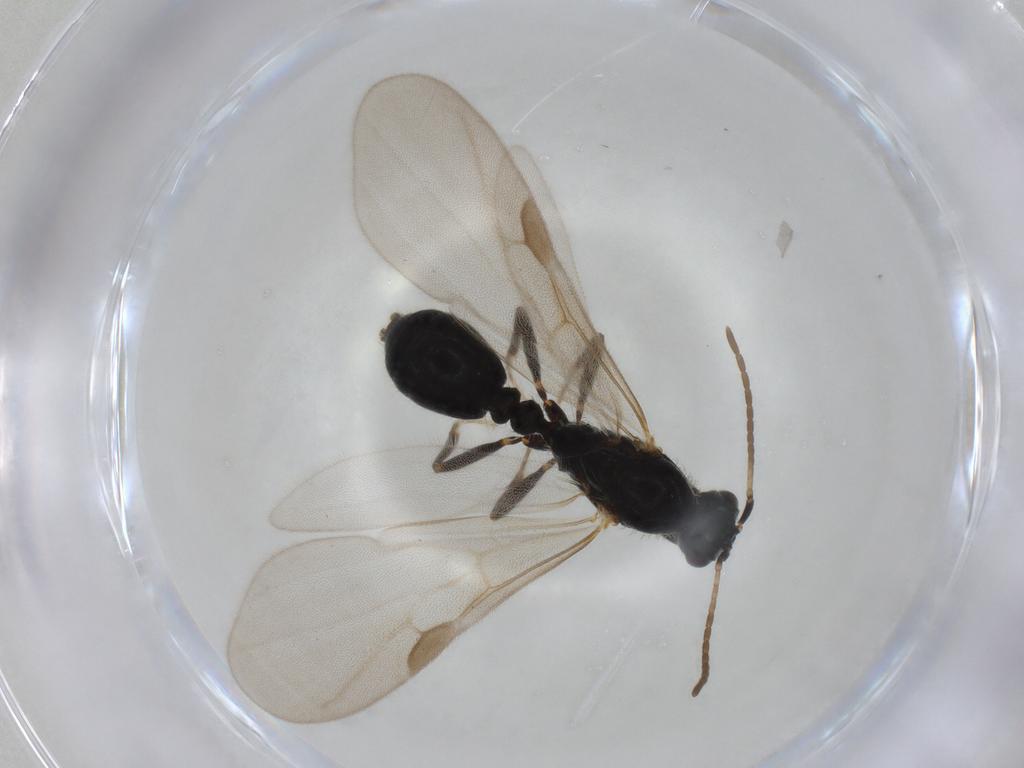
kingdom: Animalia
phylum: Arthropoda
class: Insecta
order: Hymenoptera
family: Formicidae
